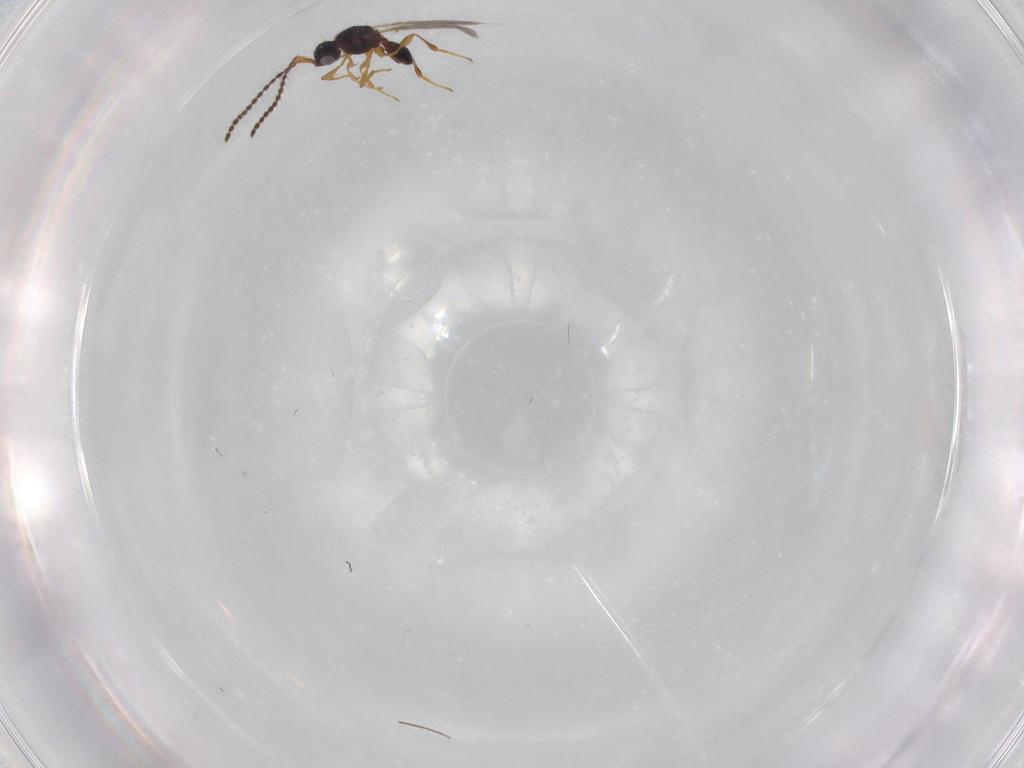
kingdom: Animalia
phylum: Arthropoda
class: Insecta
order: Hymenoptera
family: Diapriidae
